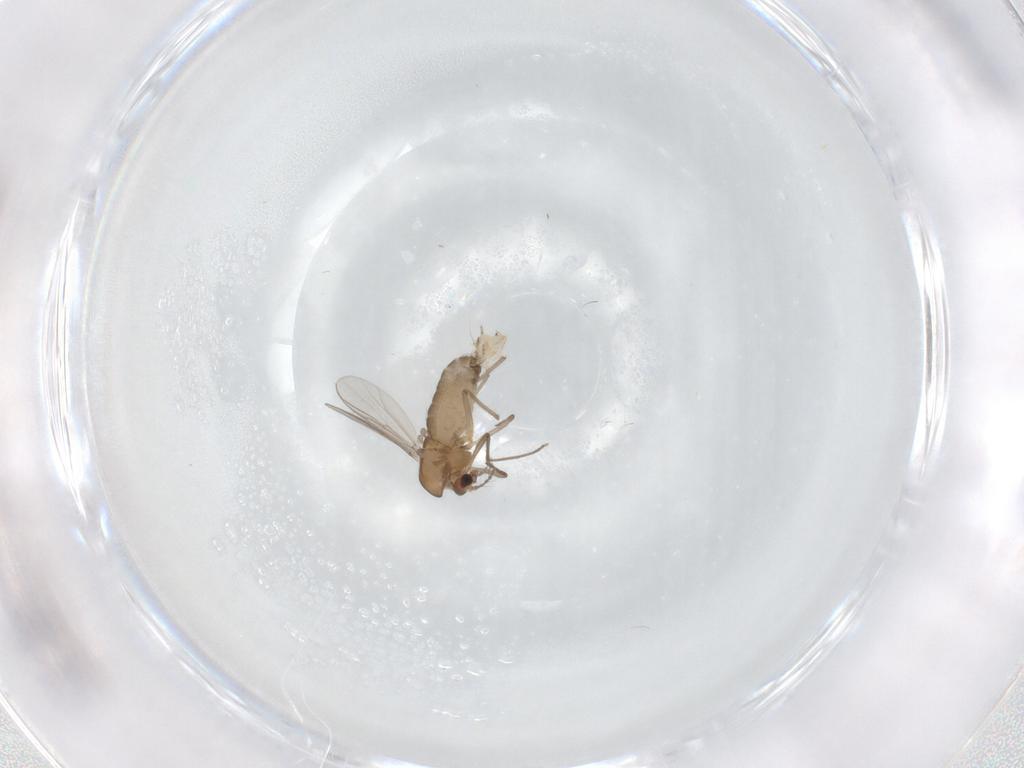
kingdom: Animalia
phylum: Arthropoda
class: Insecta
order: Diptera
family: Chironomidae
